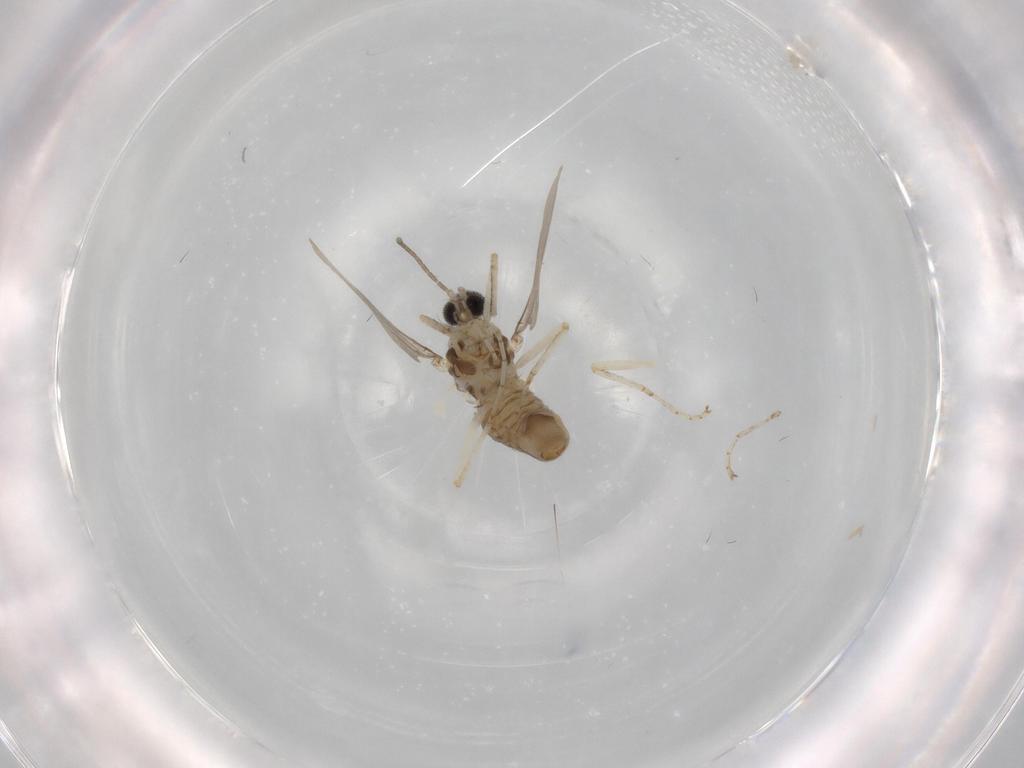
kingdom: Animalia
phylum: Arthropoda
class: Insecta
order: Diptera
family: Cecidomyiidae
